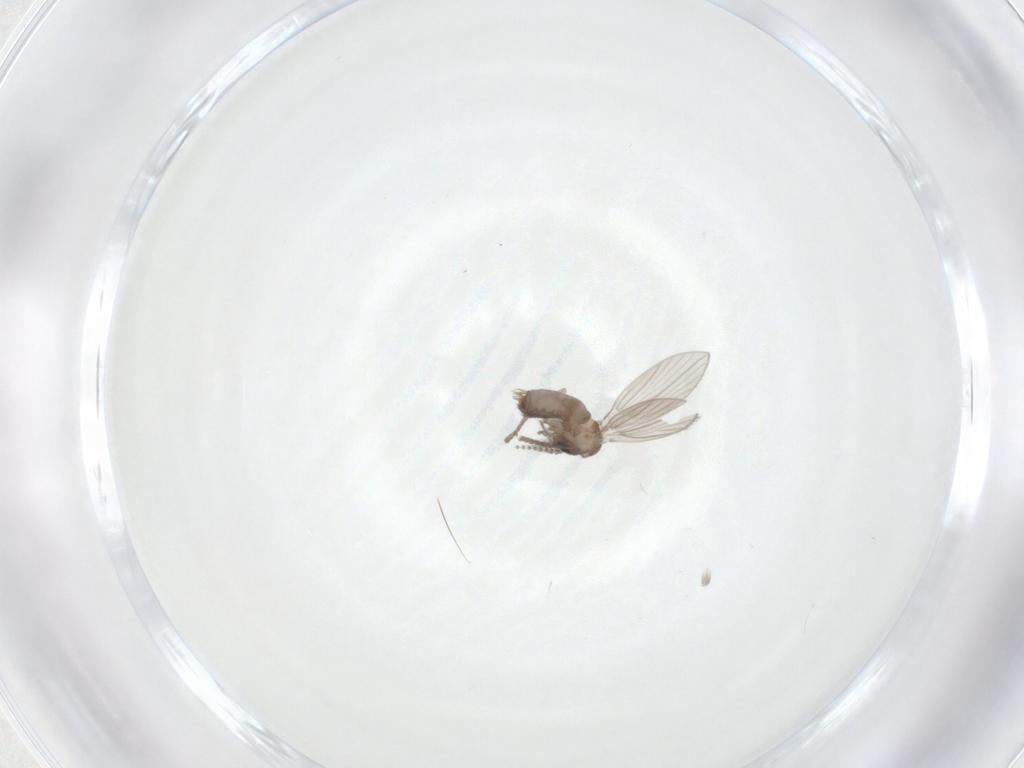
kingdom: Animalia
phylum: Arthropoda
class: Insecta
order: Diptera
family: Psychodidae
